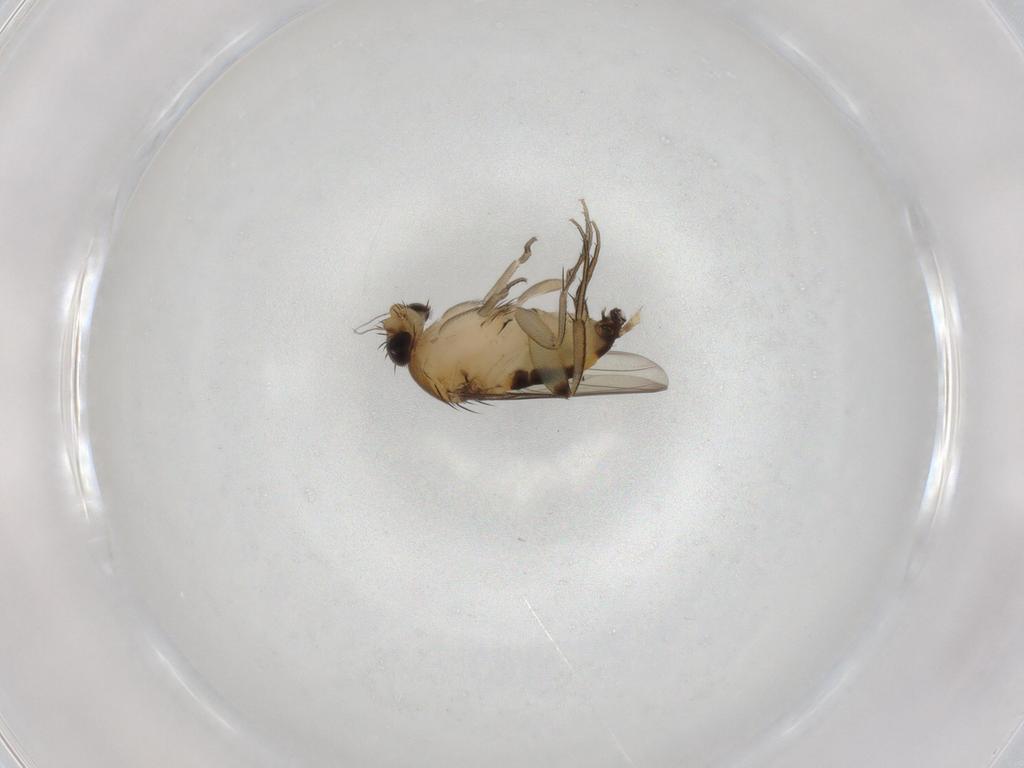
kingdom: Animalia
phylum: Arthropoda
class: Insecta
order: Diptera
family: Phoridae
